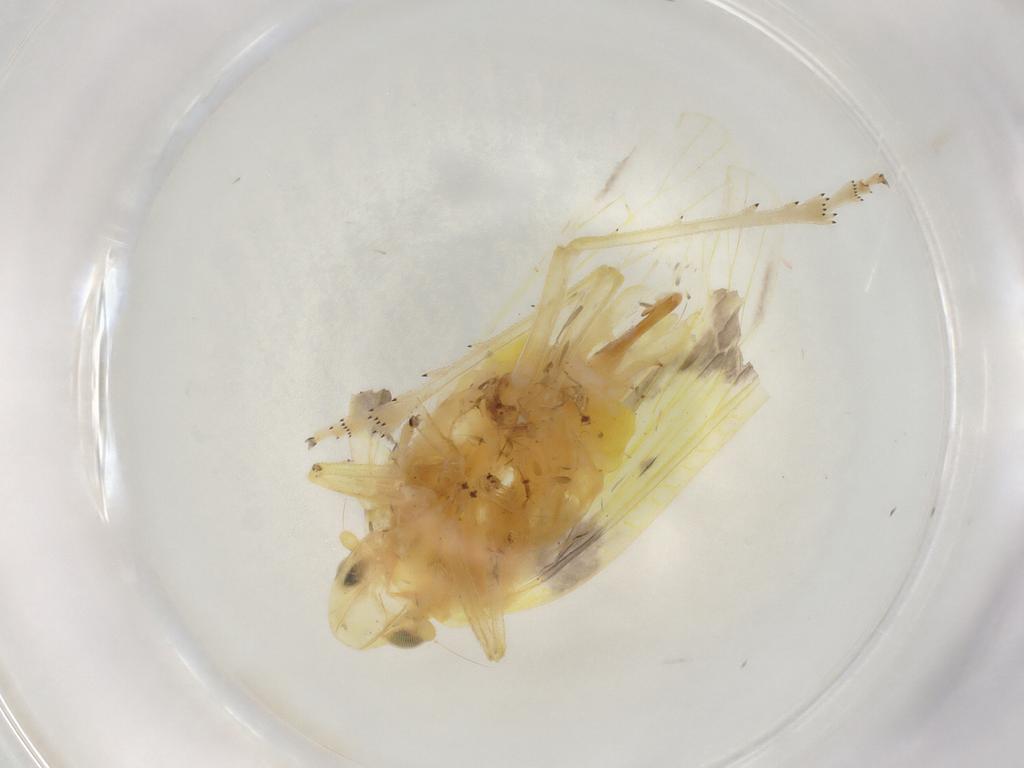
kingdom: Animalia
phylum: Arthropoda
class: Insecta
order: Hemiptera
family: Tropiduchidae
